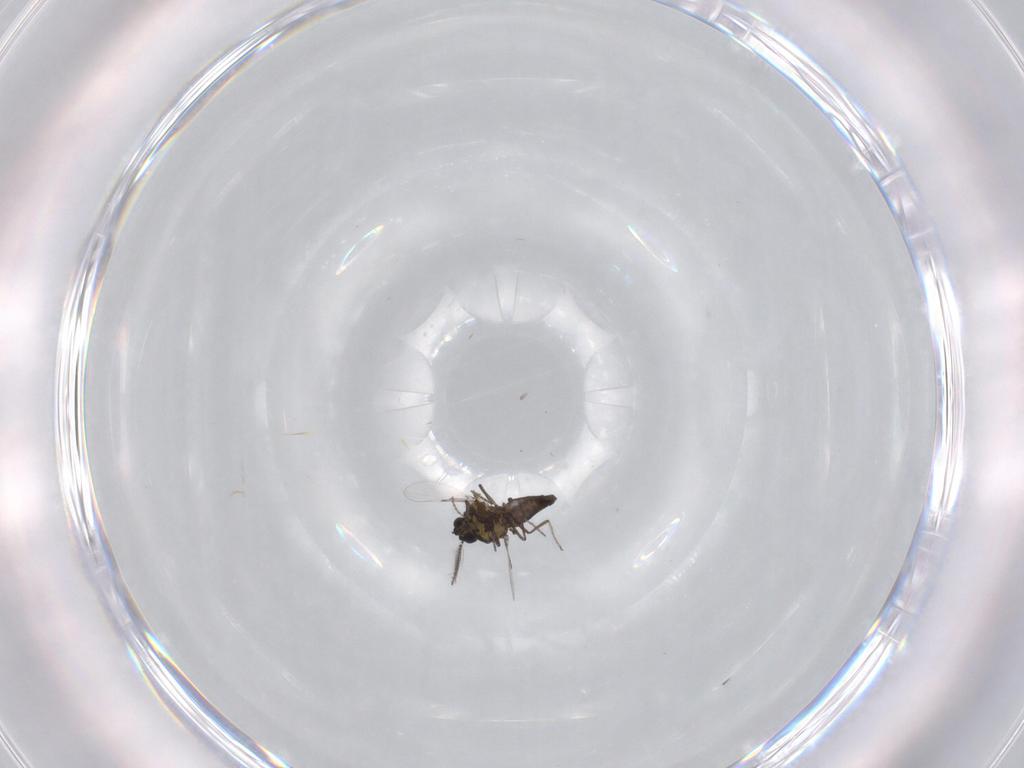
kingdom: Animalia
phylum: Arthropoda
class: Insecta
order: Diptera
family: Ceratopogonidae
